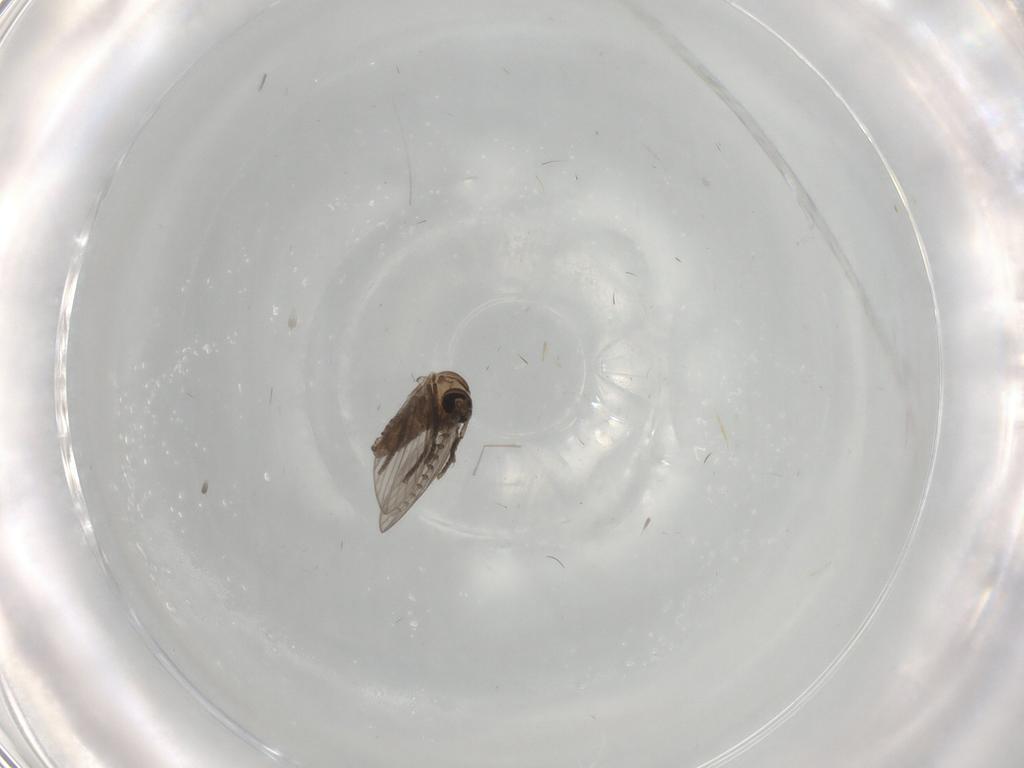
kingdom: Animalia
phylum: Arthropoda
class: Insecta
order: Diptera
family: Psychodidae
